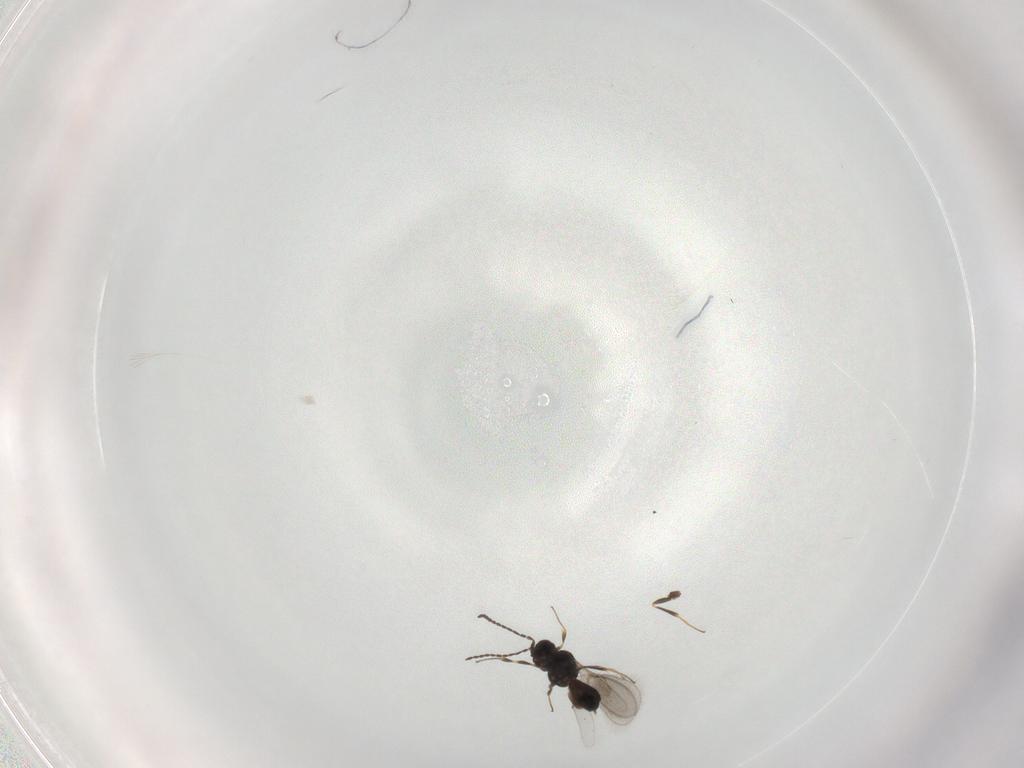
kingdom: Animalia
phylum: Arthropoda
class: Insecta
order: Hymenoptera
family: Scelionidae
